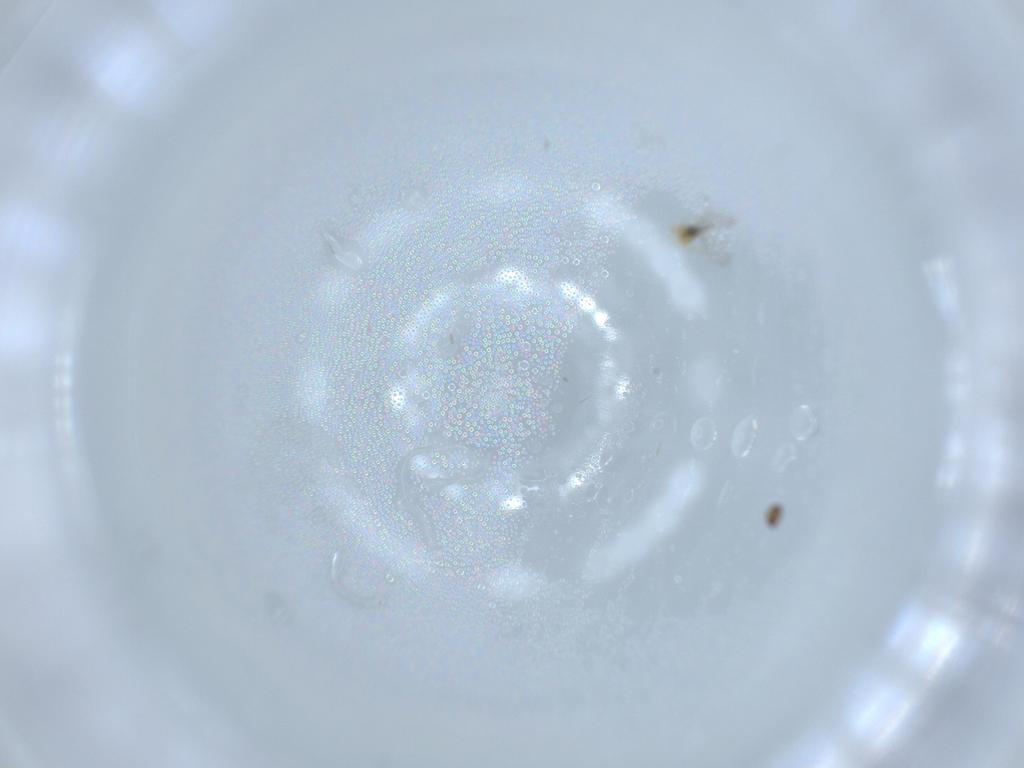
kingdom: Animalia
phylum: Arthropoda
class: Insecta
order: Hymenoptera
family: Trichogrammatidae
